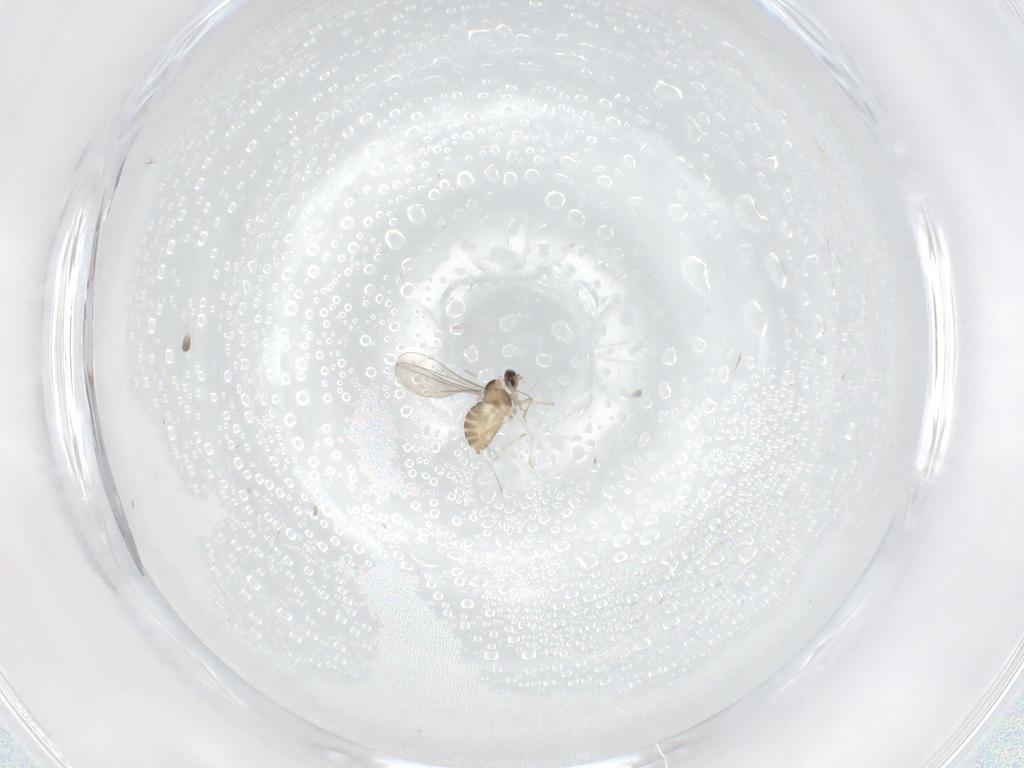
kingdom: Animalia
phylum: Arthropoda
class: Insecta
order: Diptera
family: Cecidomyiidae
